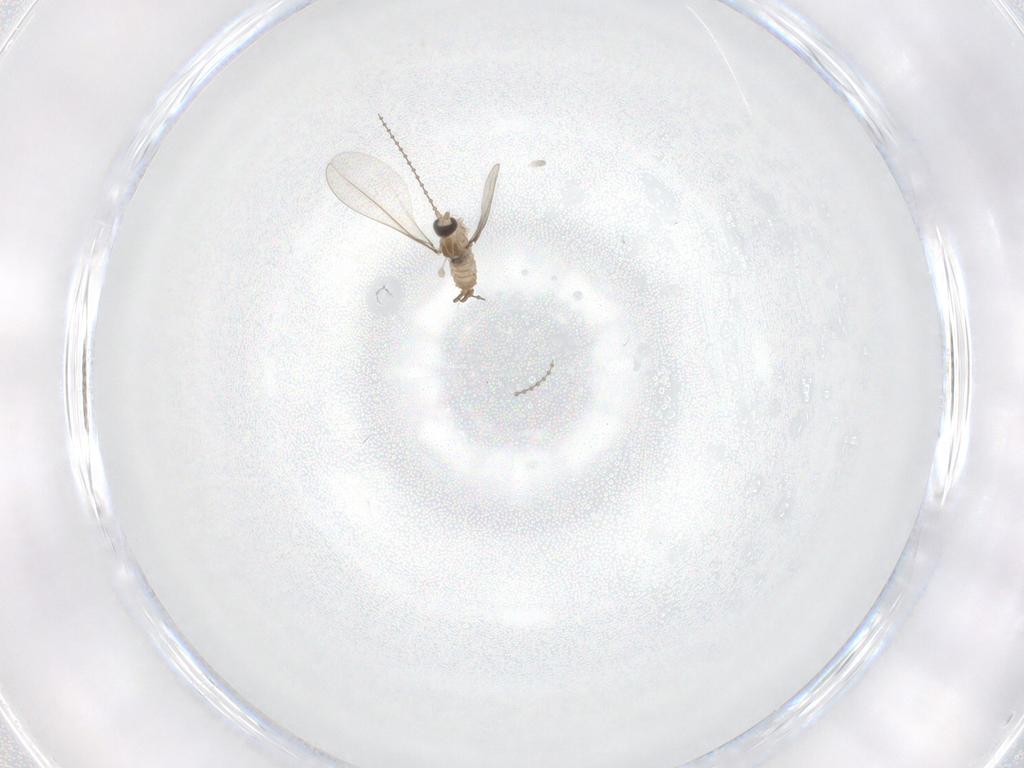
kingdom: Animalia
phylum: Arthropoda
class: Insecta
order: Diptera
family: Cecidomyiidae
